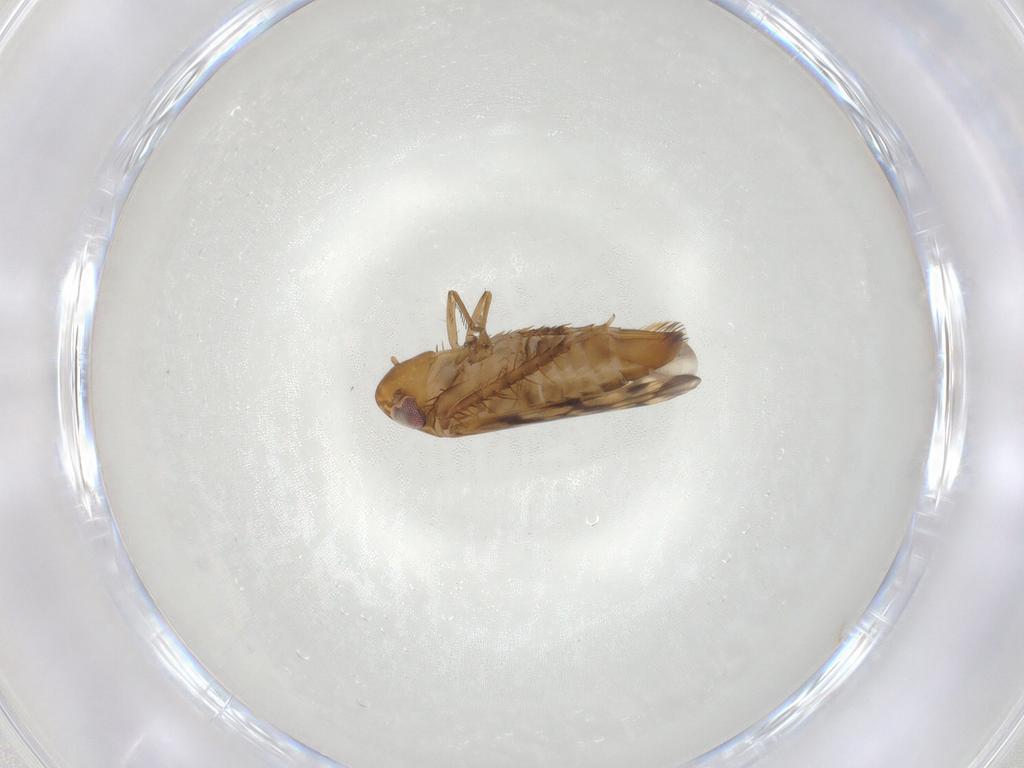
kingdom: Animalia
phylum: Arthropoda
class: Insecta
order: Hemiptera
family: Cicadellidae
